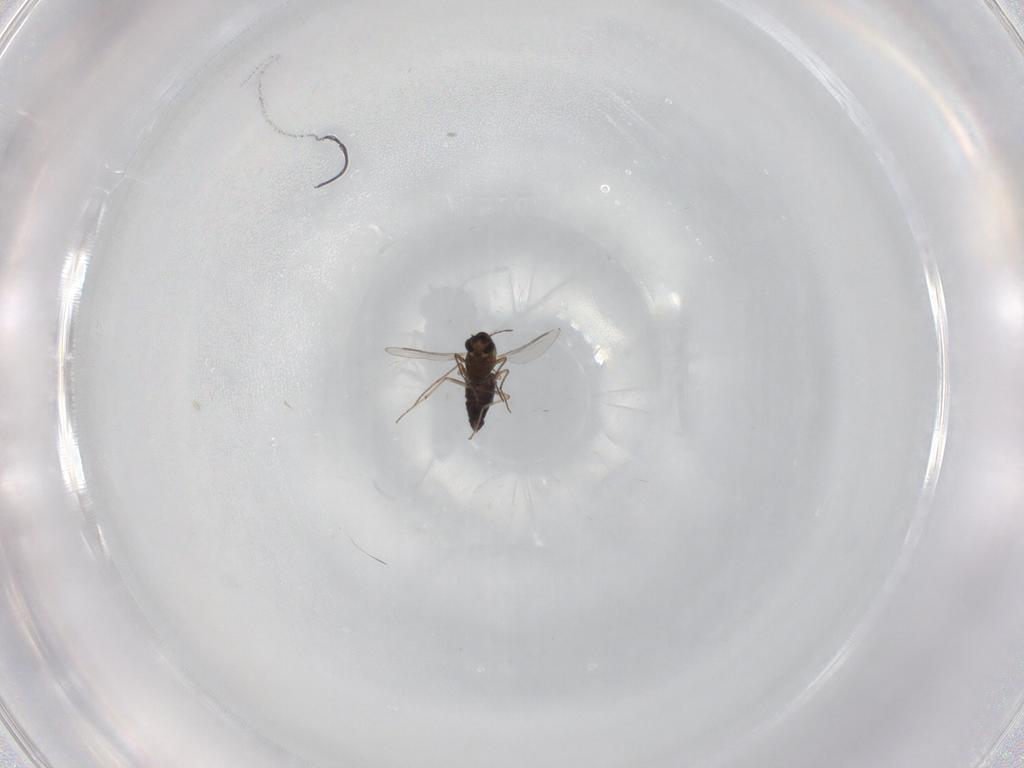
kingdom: Animalia
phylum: Arthropoda
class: Insecta
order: Diptera
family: Chironomidae
